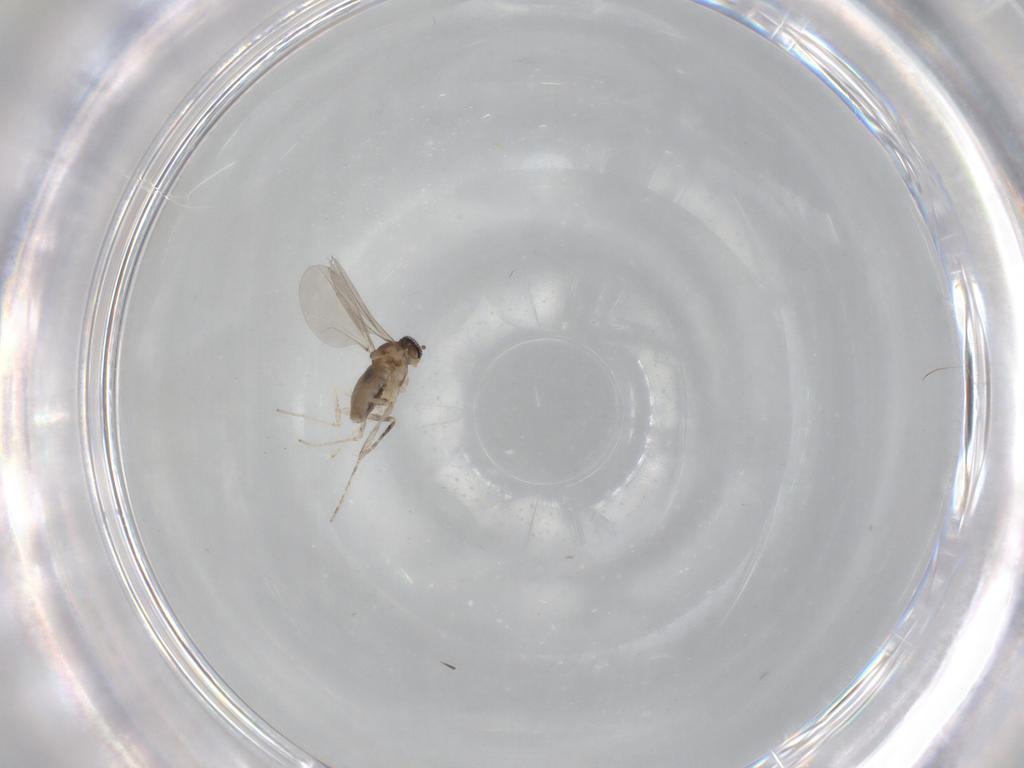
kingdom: Animalia
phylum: Arthropoda
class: Insecta
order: Diptera
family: Cecidomyiidae
